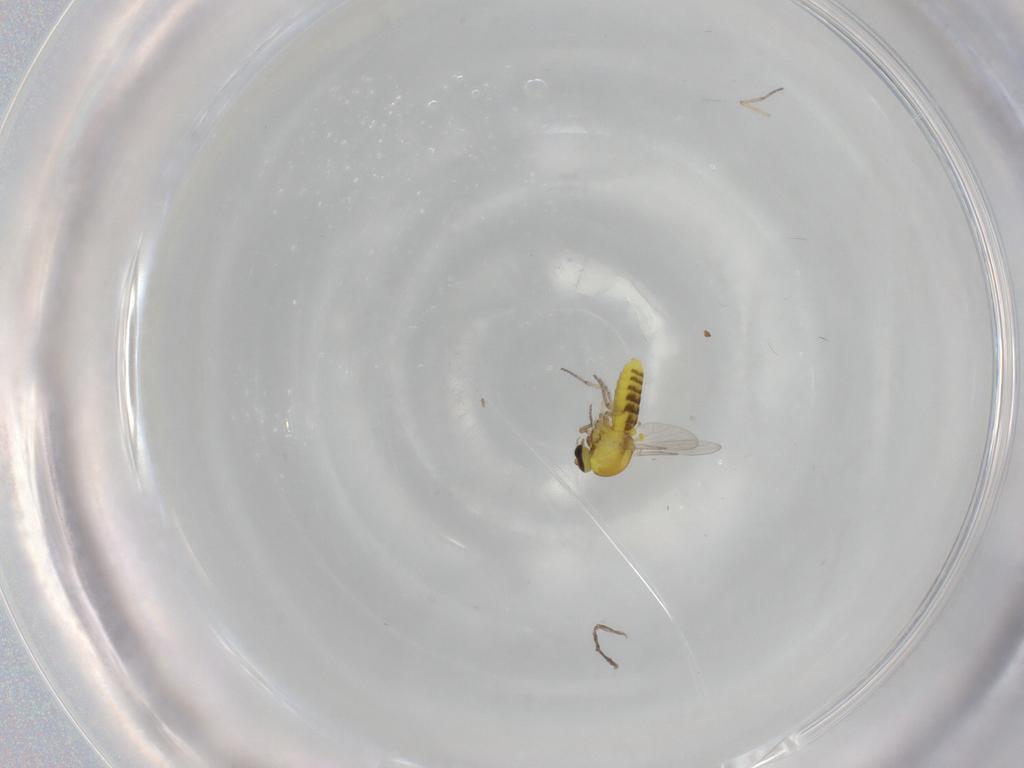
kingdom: Animalia
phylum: Arthropoda
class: Insecta
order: Diptera
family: Ceratopogonidae
